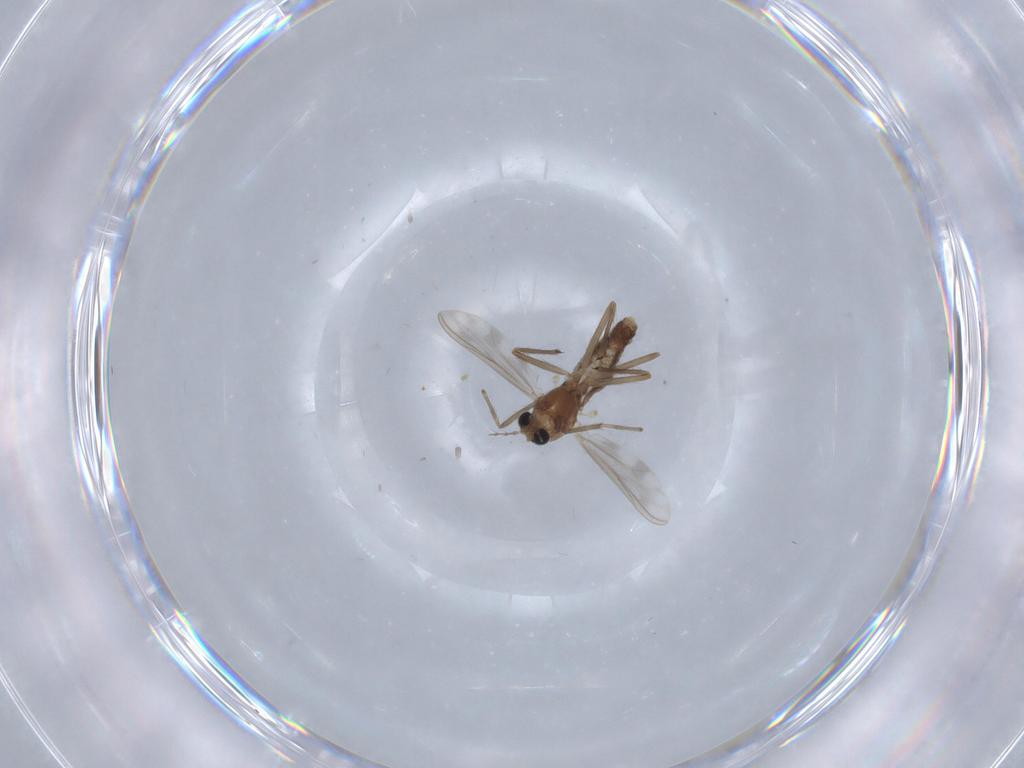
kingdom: Animalia
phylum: Arthropoda
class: Insecta
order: Diptera
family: Chironomidae
